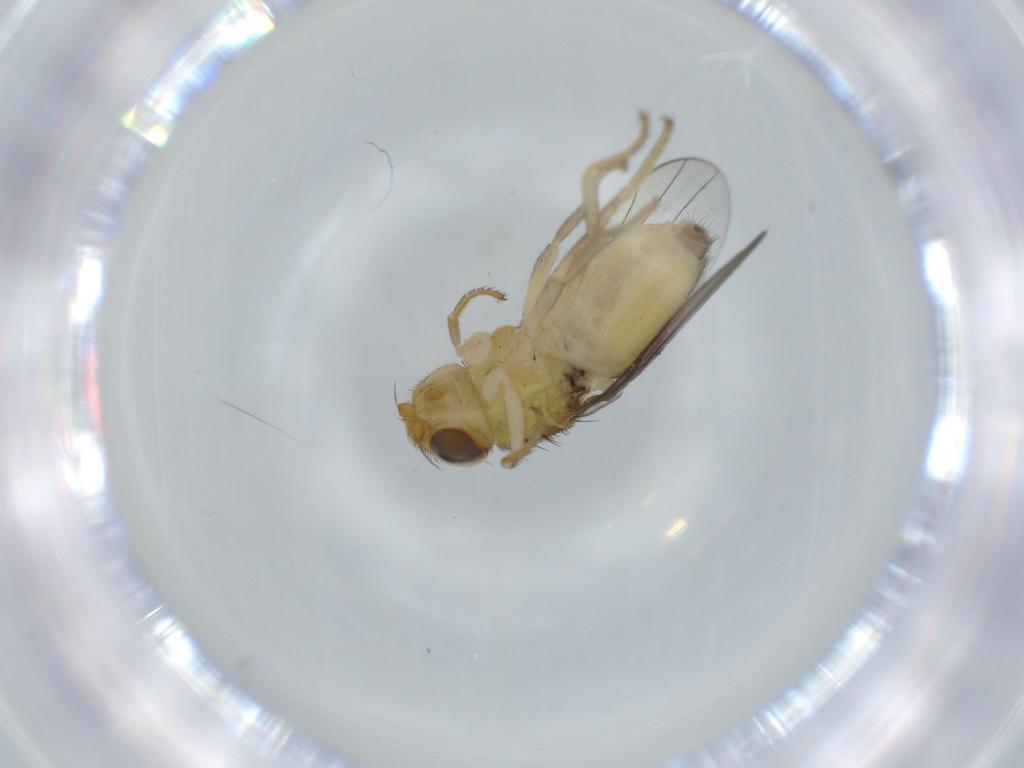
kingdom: Animalia
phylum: Arthropoda
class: Insecta
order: Diptera
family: Chloropidae
